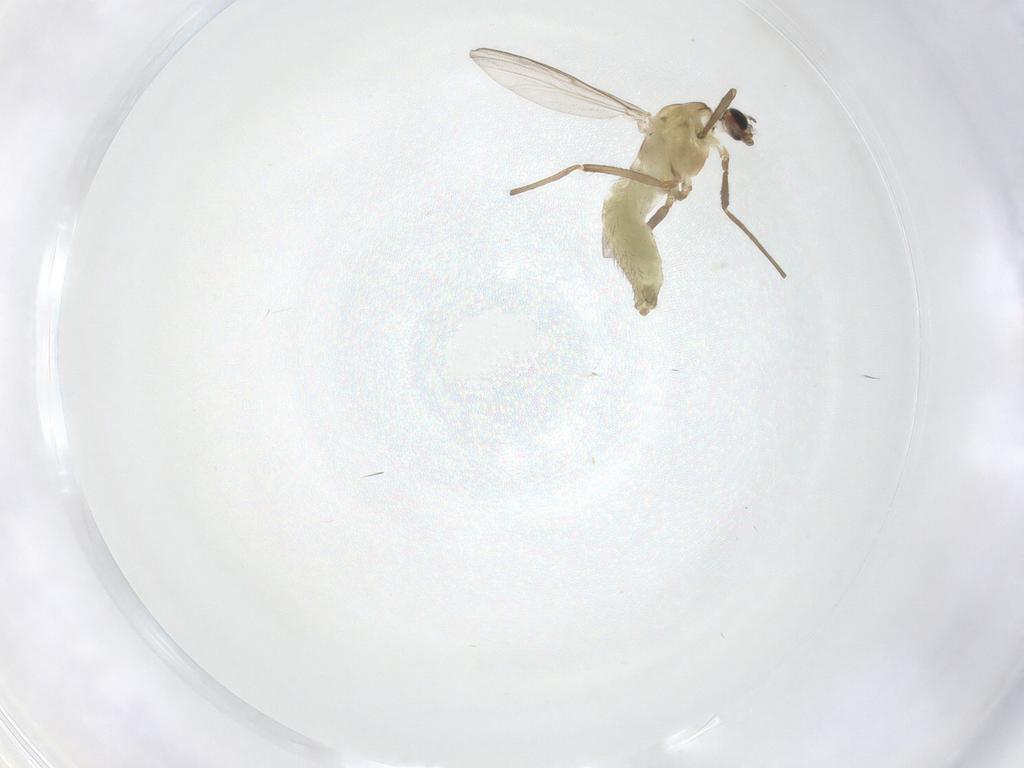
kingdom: Animalia
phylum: Arthropoda
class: Insecta
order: Diptera
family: Chironomidae
